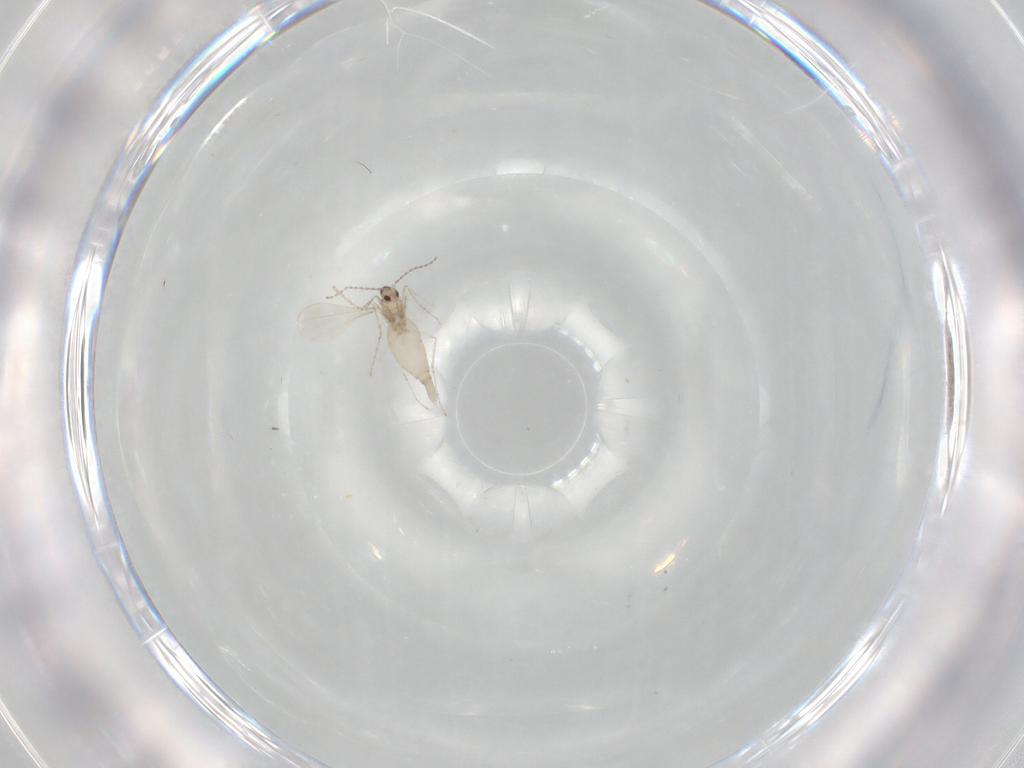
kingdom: Animalia
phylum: Arthropoda
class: Insecta
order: Diptera
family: Cecidomyiidae
